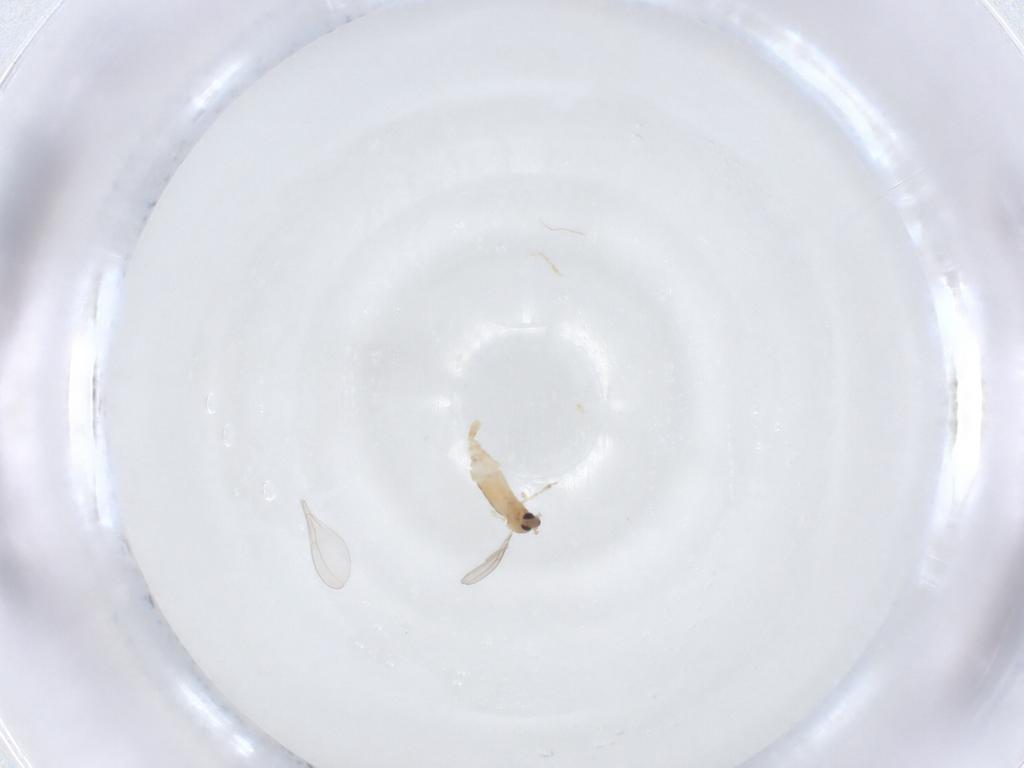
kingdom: Animalia
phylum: Arthropoda
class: Insecta
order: Diptera
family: Cecidomyiidae
